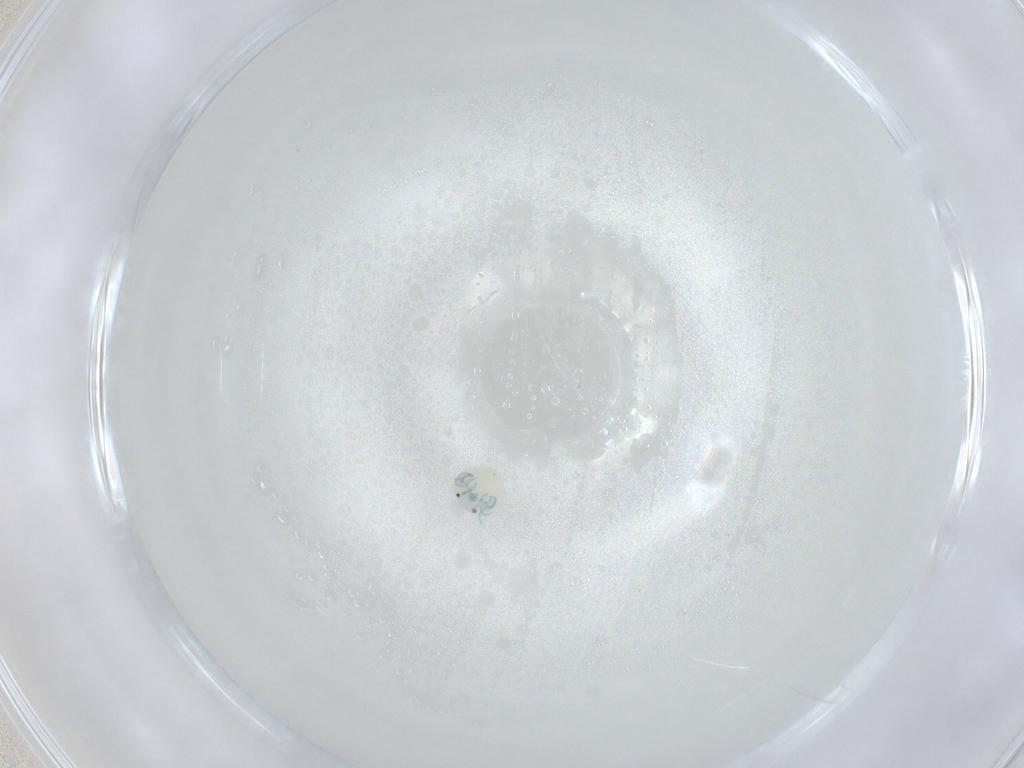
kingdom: Animalia
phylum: Arthropoda
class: Arachnida
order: Trombidiformes
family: Arrenuridae
